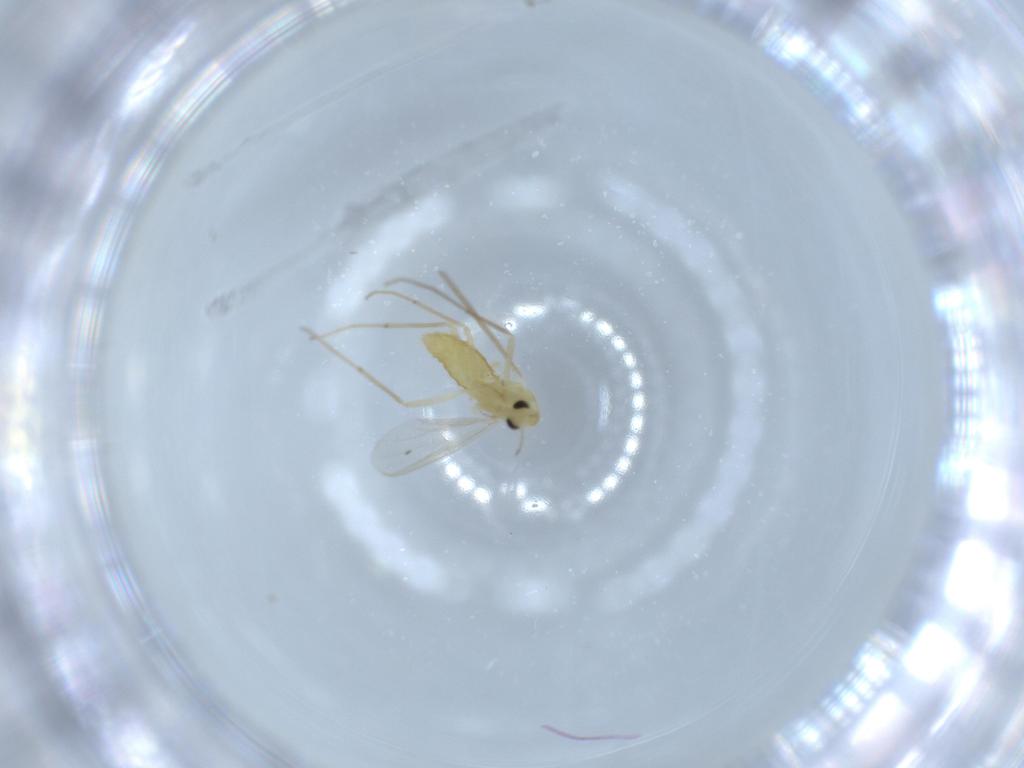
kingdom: Animalia
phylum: Arthropoda
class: Insecta
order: Diptera
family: Chironomidae
